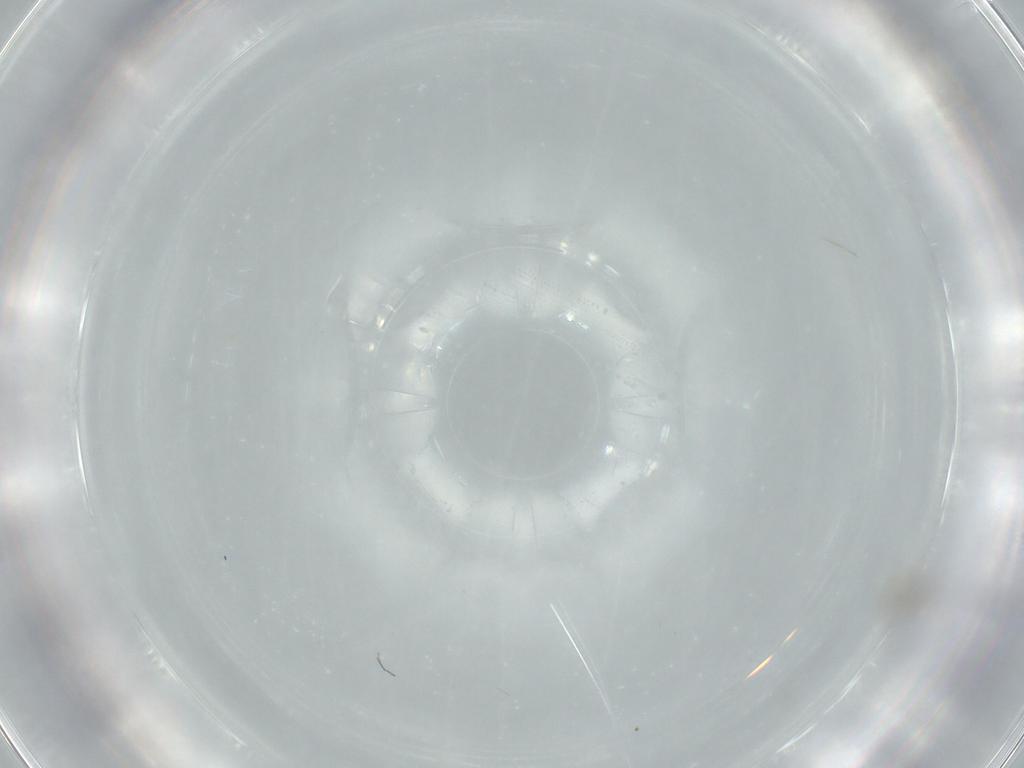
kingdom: Animalia
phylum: Arthropoda
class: Insecta
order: Diptera
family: Cecidomyiidae
